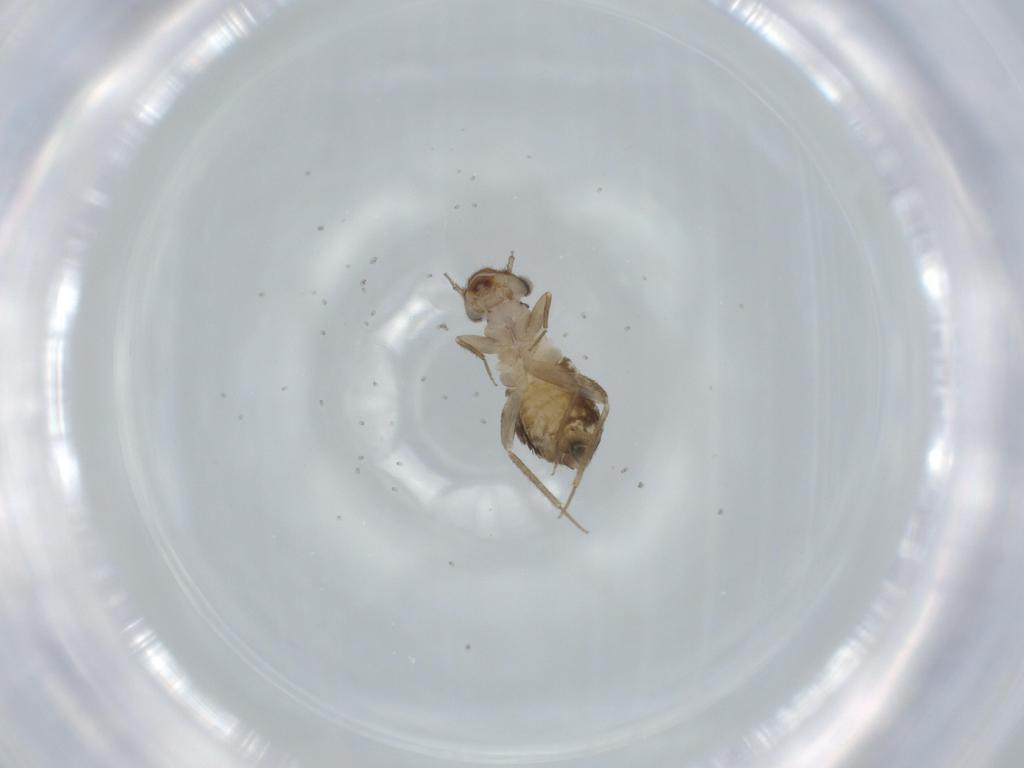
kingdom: Animalia
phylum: Arthropoda
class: Insecta
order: Psocodea
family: Lepidopsocidae
